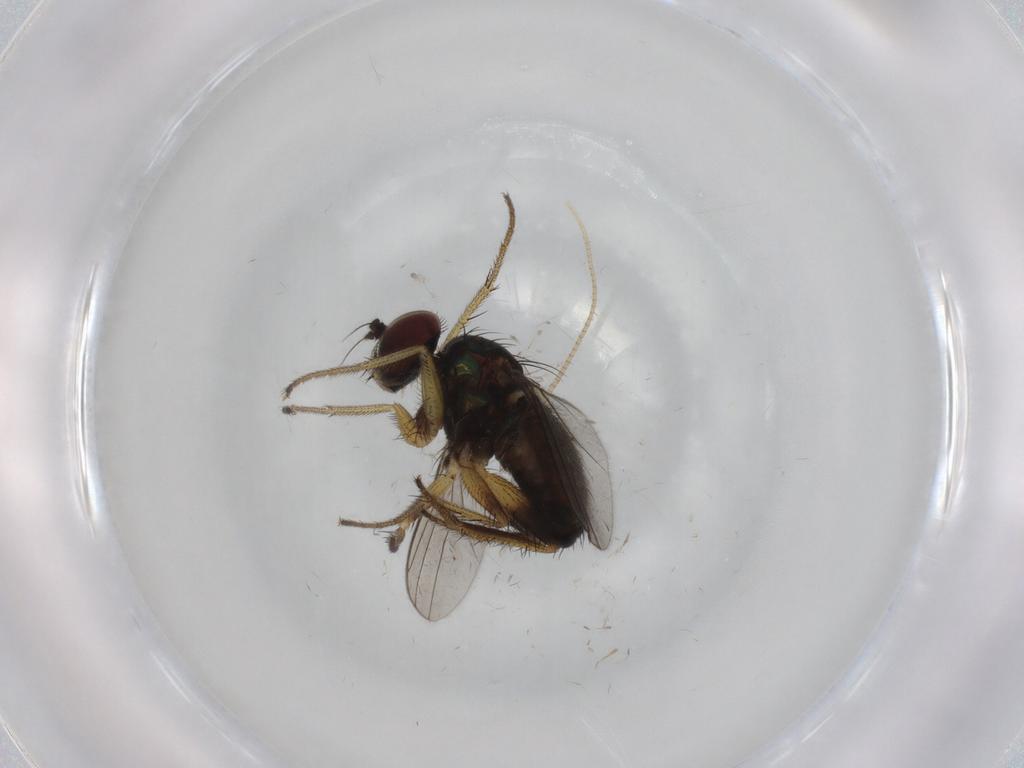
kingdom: Animalia
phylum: Arthropoda
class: Insecta
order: Diptera
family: Dolichopodidae
